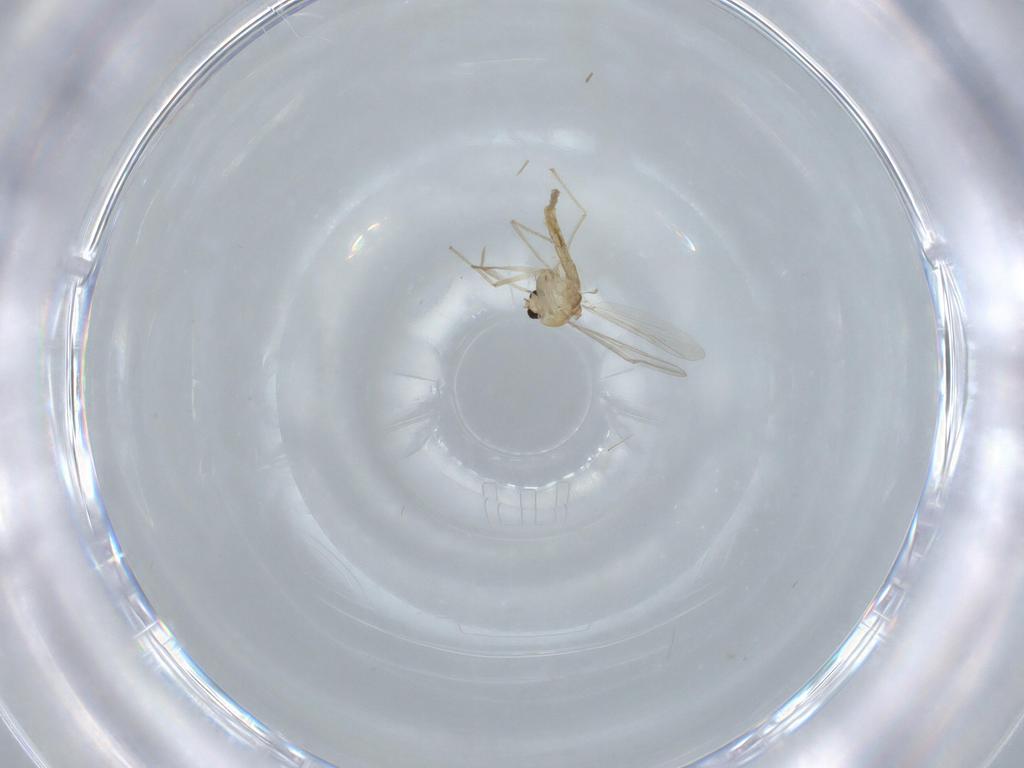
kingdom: Animalia
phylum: Arthropoda
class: Insecta
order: Diptera
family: Chironomidae
